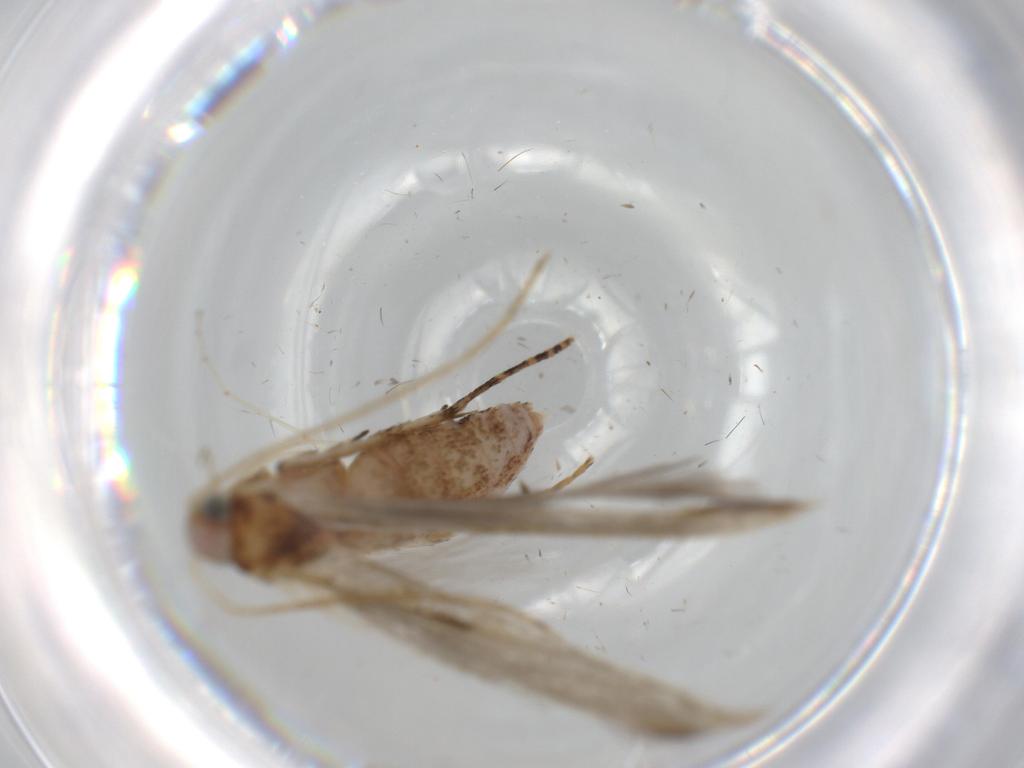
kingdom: Animalia
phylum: Arthropoda
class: Insecta
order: Lepidoptera
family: Batrachedridae
